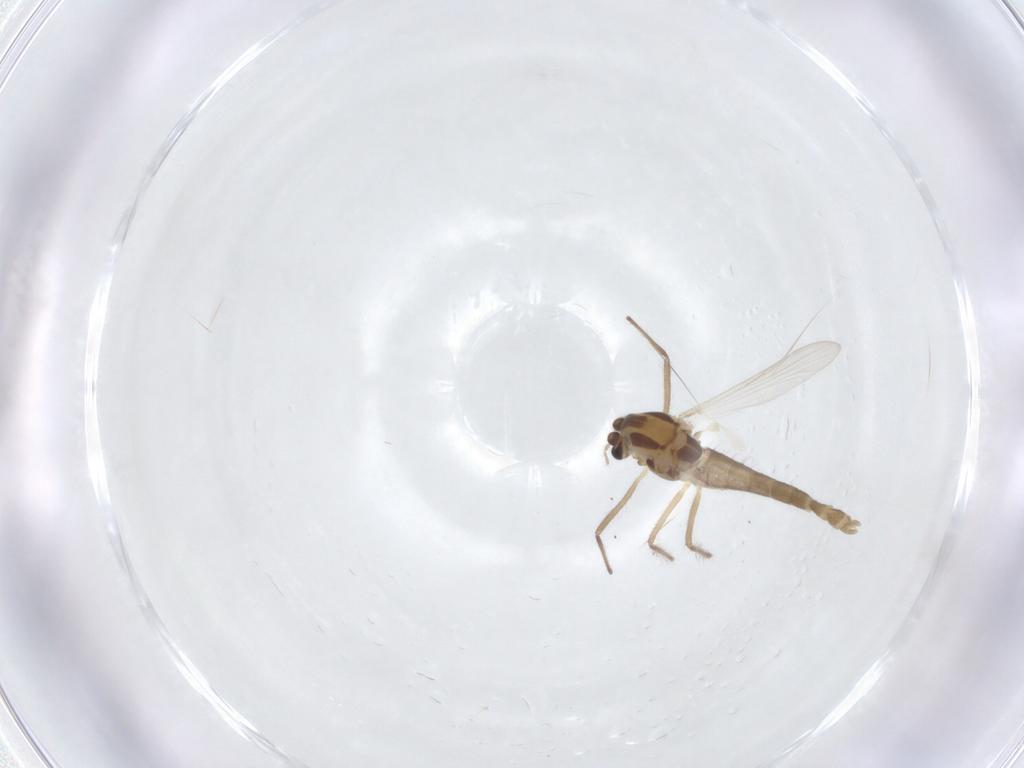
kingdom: Animalia
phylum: Arthropoda
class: Insecta
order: Diptera
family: Chironomidae
